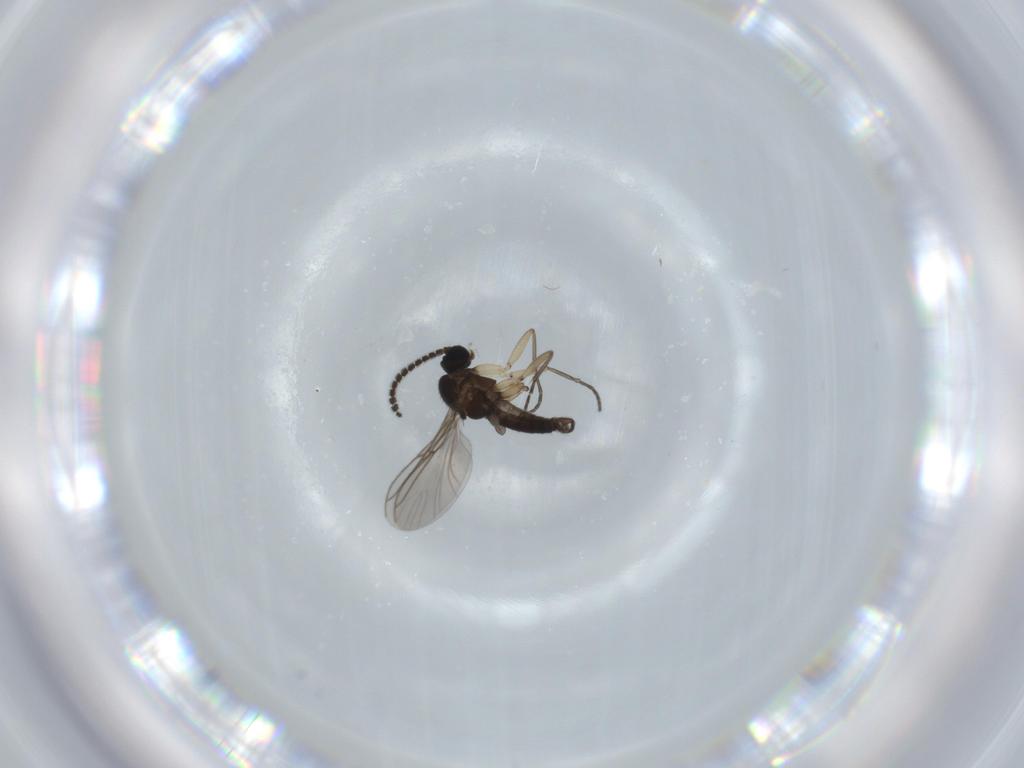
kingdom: Animalia
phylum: Arthropoda
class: Insecta
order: Diptera
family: Sciaridae
